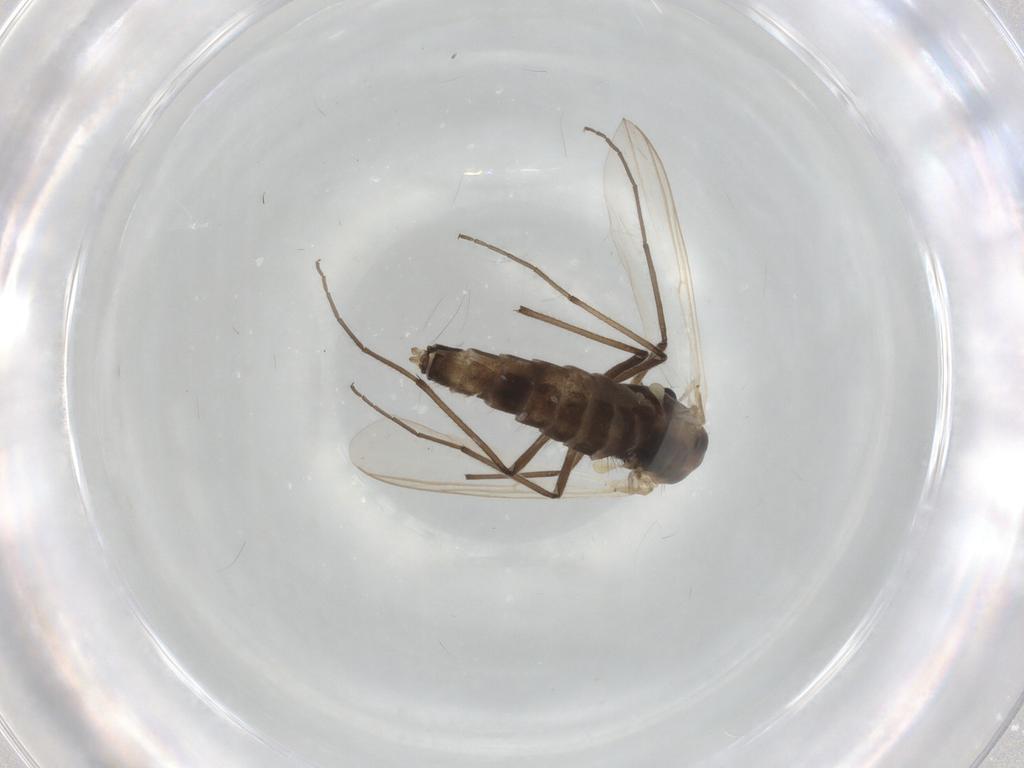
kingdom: Animalia
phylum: Arthropoda
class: Insecta
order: Diptera
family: Chironomidae
